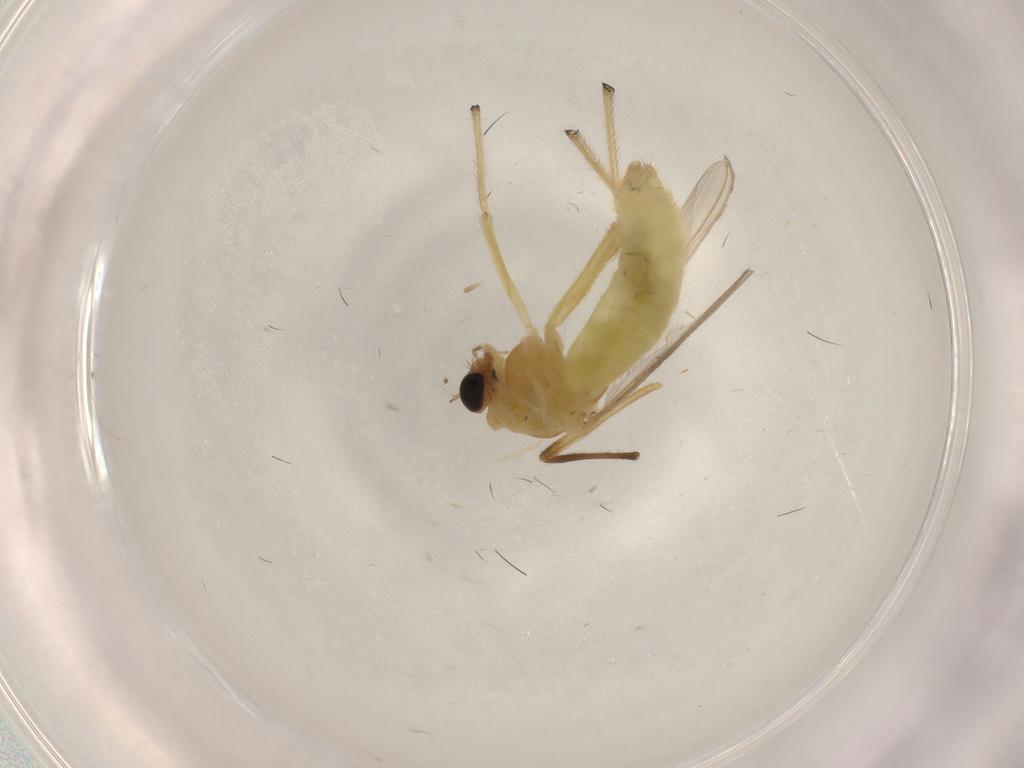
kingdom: Animalia
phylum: Arthropoda
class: Insecta
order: Diptera
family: Chironomidae
